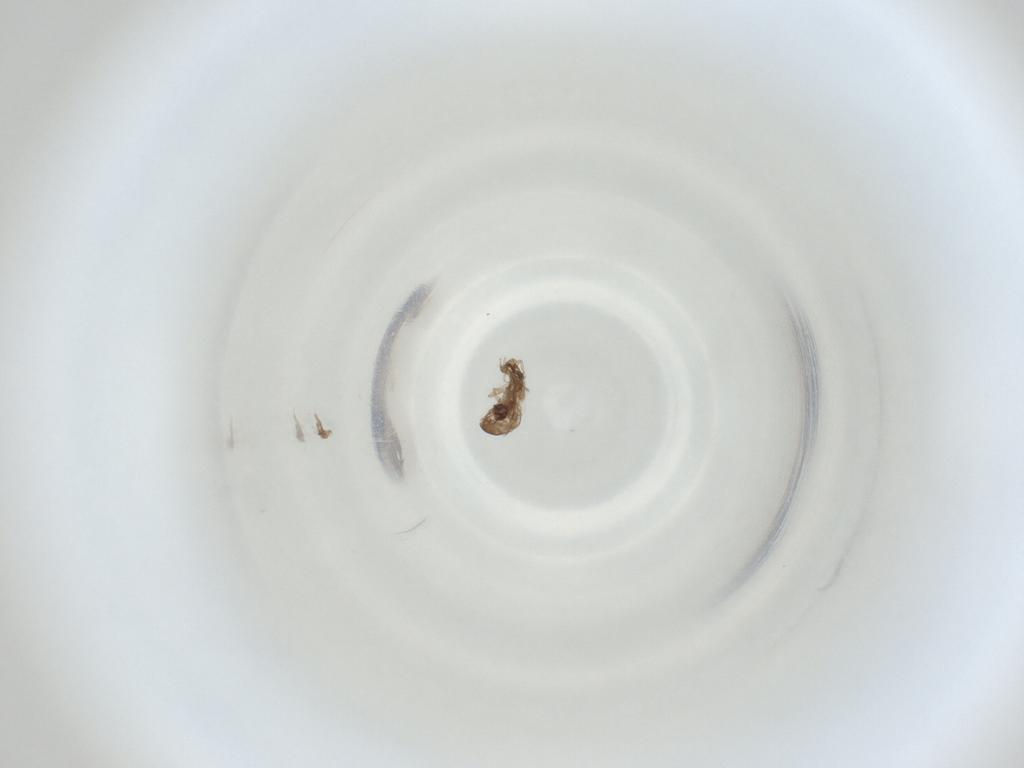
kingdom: Animalia
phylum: Arthropoda
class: Insecta
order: Diptera
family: Cecidomyiidae
